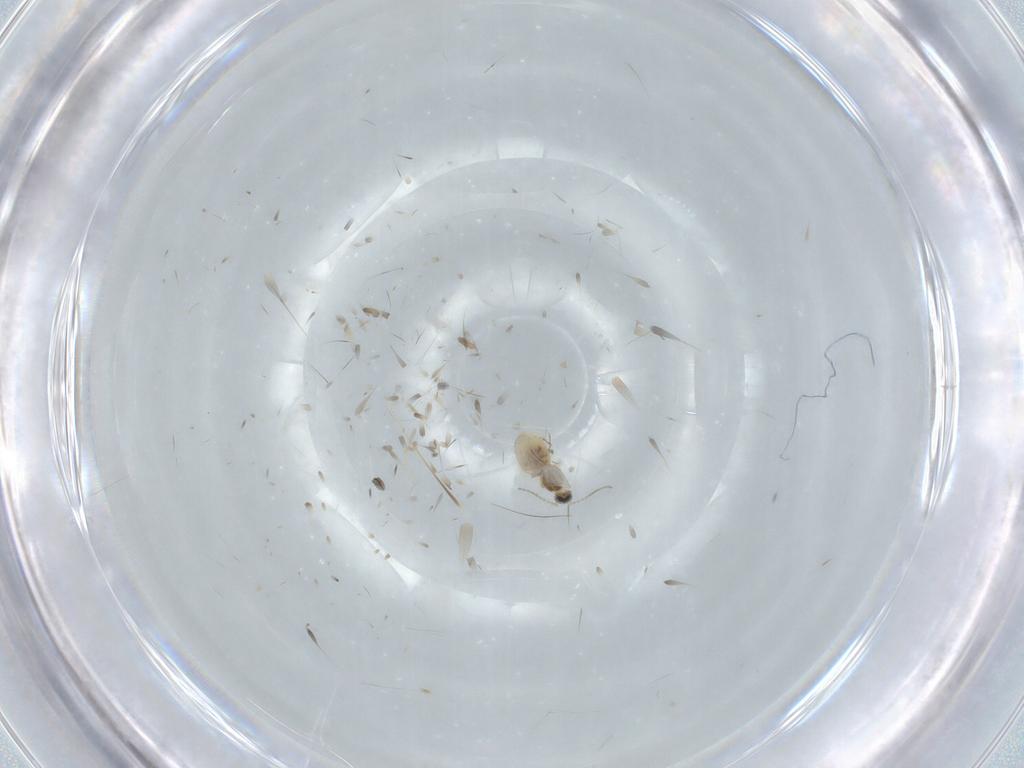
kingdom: Animalia
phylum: Arthropoda
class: Insecta
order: Diptera
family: Cecidomyiidae
